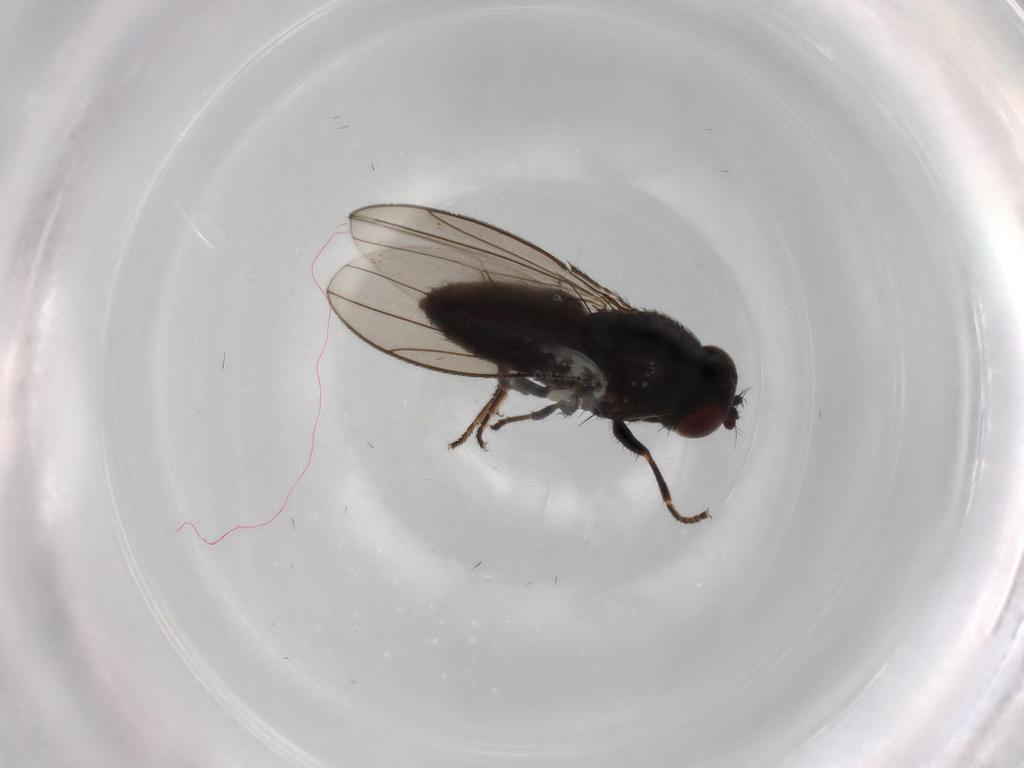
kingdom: Animalia
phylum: Arthropoda
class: Insecta
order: Diptera
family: Ephydridae
